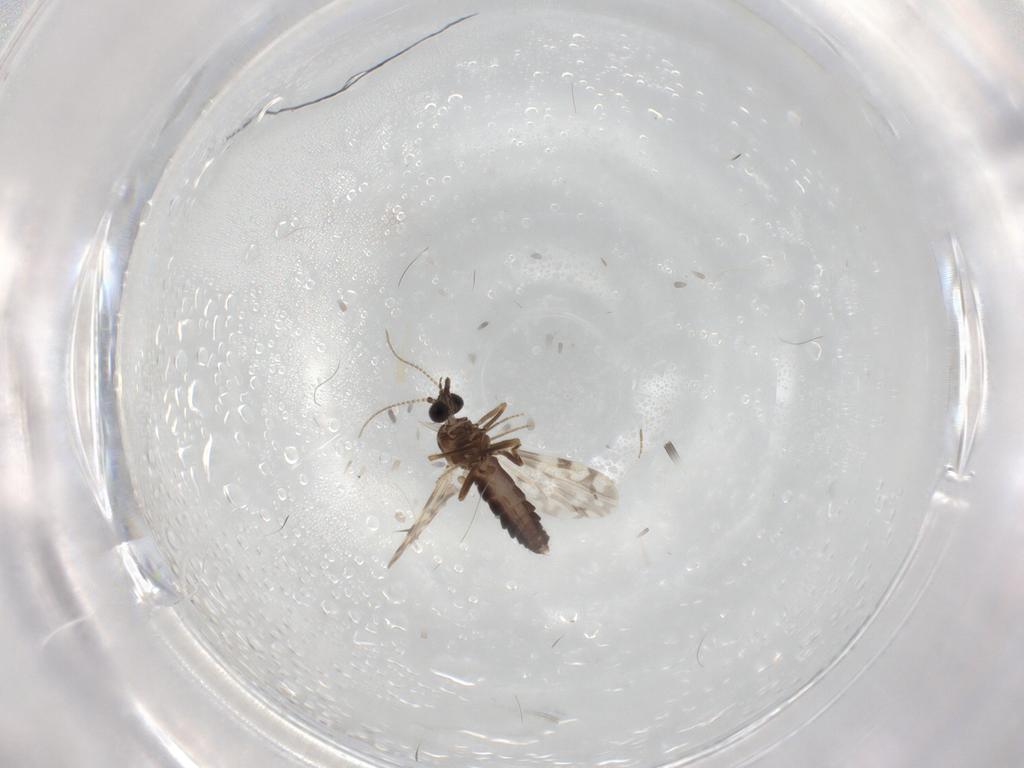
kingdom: Animalia
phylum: Arthropoda
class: Insecta
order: Diptera
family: Ceratopogonidae
